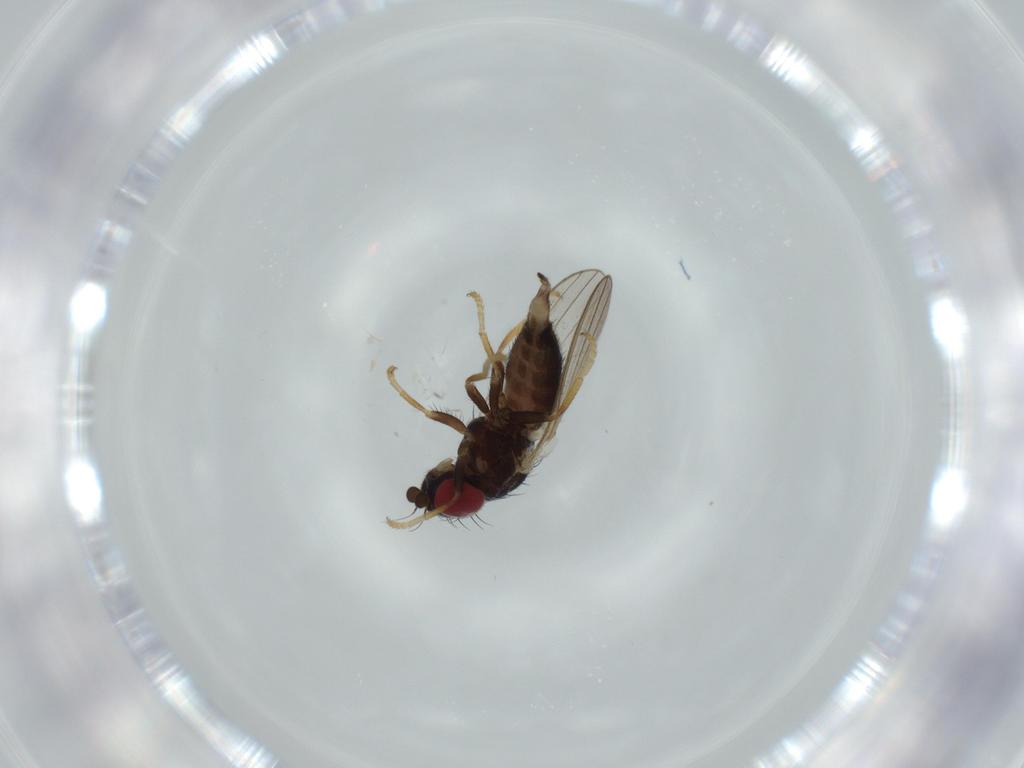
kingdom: Animalia
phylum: Arthropoda
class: Insecta
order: Diptera
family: Chamaemyiidae
